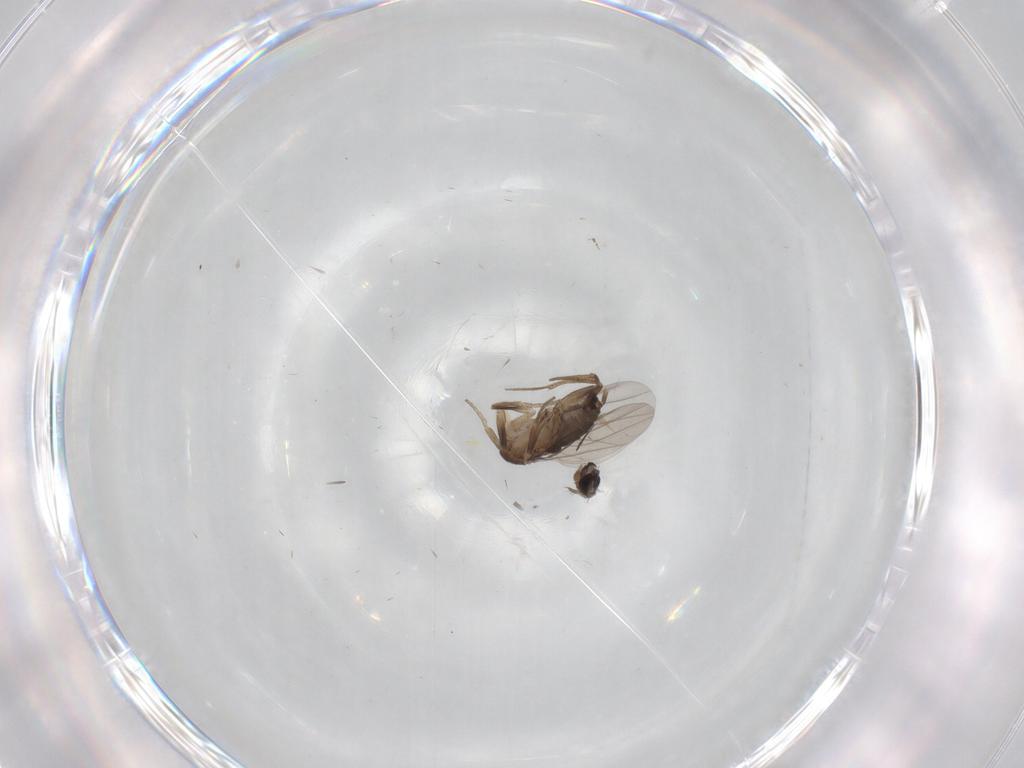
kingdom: Animalia
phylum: Arthropoda
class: Insecta
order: Diptera
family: Phoridae
